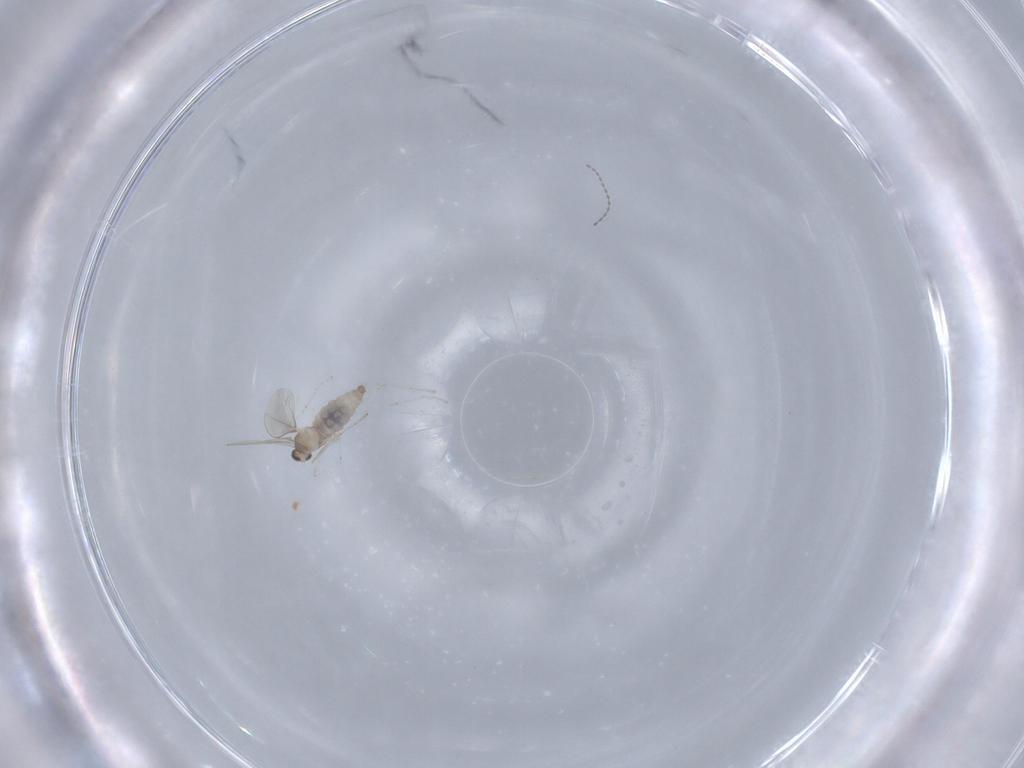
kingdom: Animalia
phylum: Arthropoda
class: Insecta
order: Diptera
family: Cecidomyiidae
